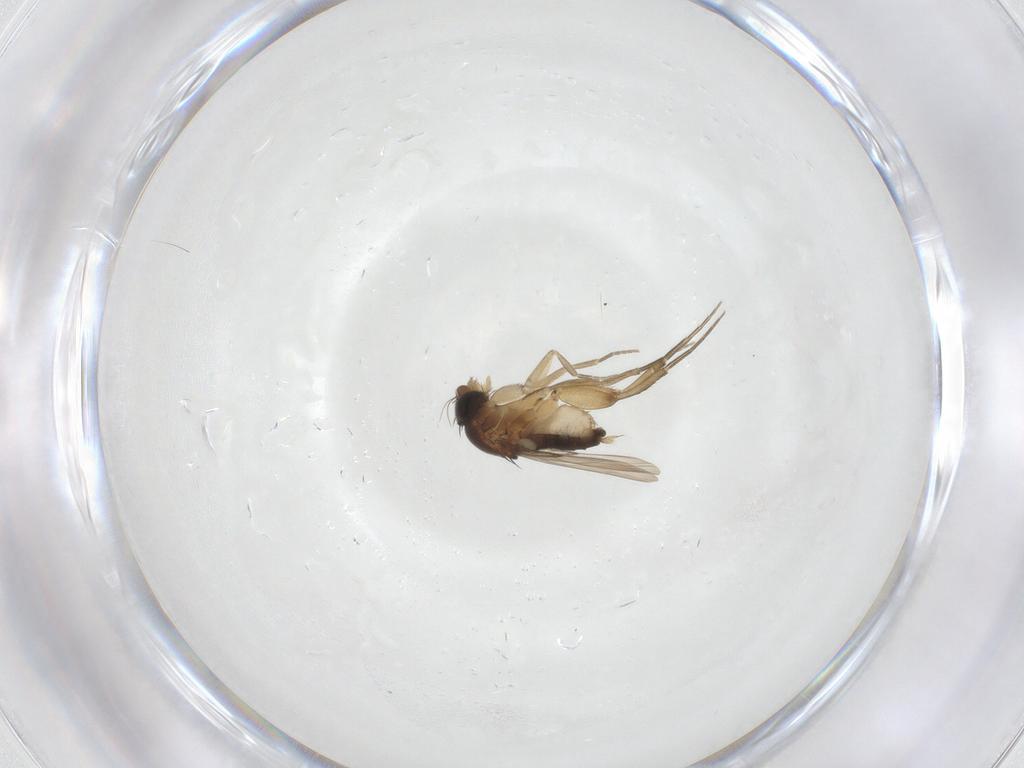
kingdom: Animalia
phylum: Arthropoda
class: Insecta
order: Diptera
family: Phoridae
